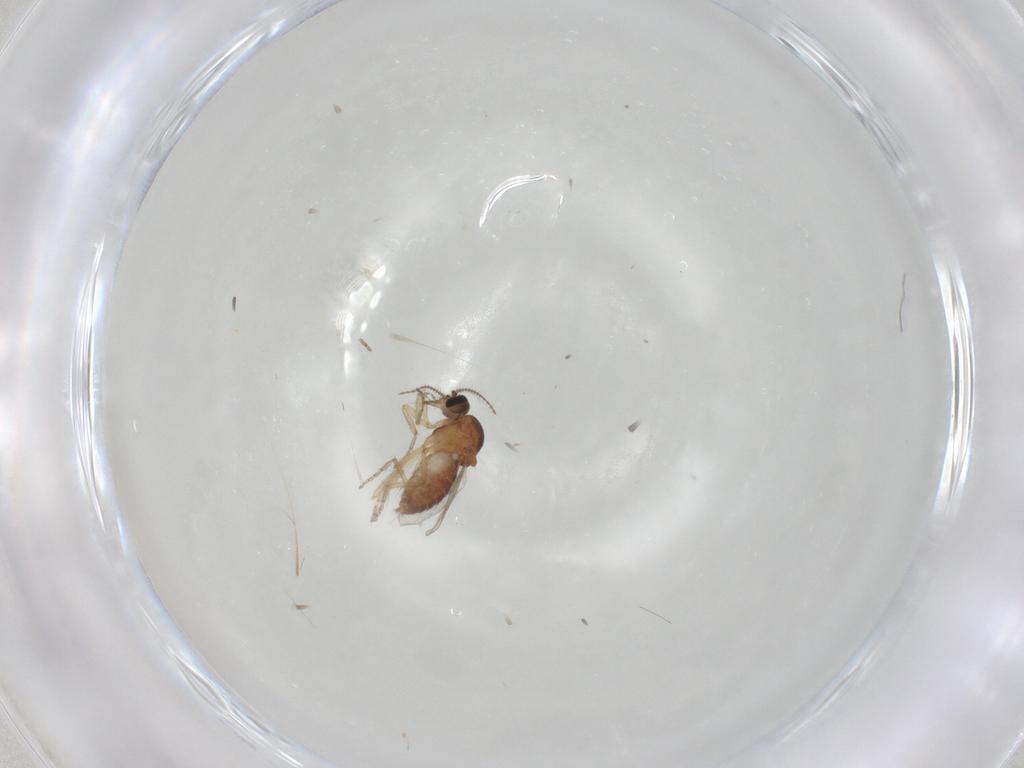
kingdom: Animalia
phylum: Arthropoda
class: Insecta
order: Diptera
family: Ceratopogonidae
